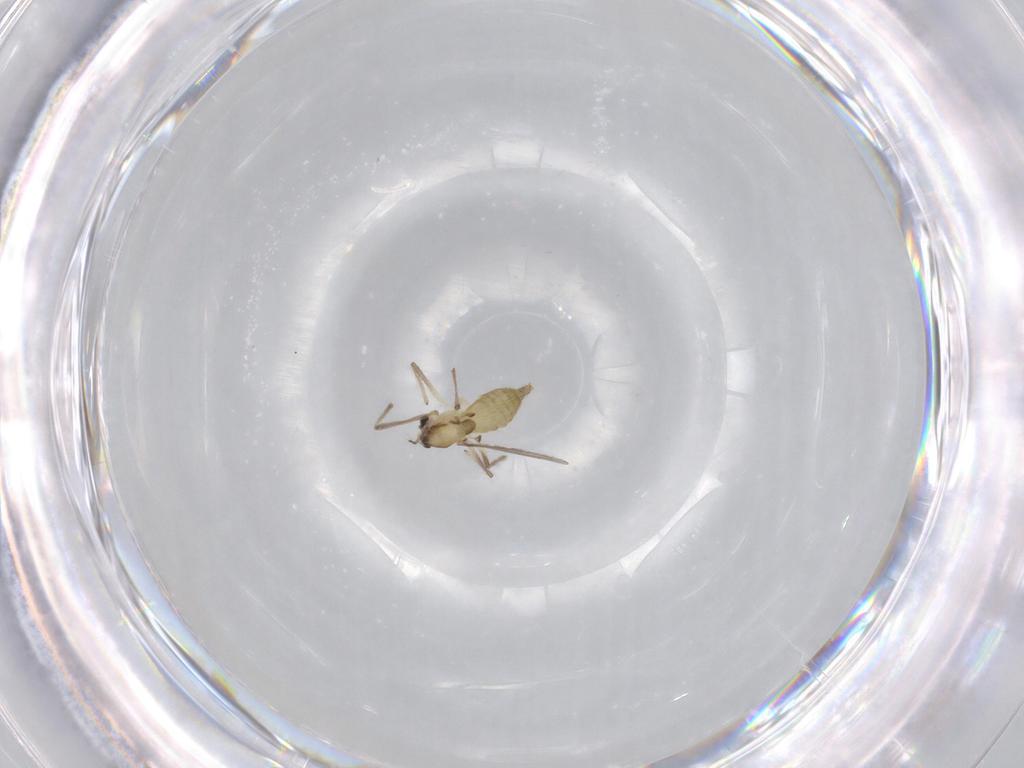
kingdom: Animalia
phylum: Arthropoda
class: Insecta
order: Diptera
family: Chironomidae
